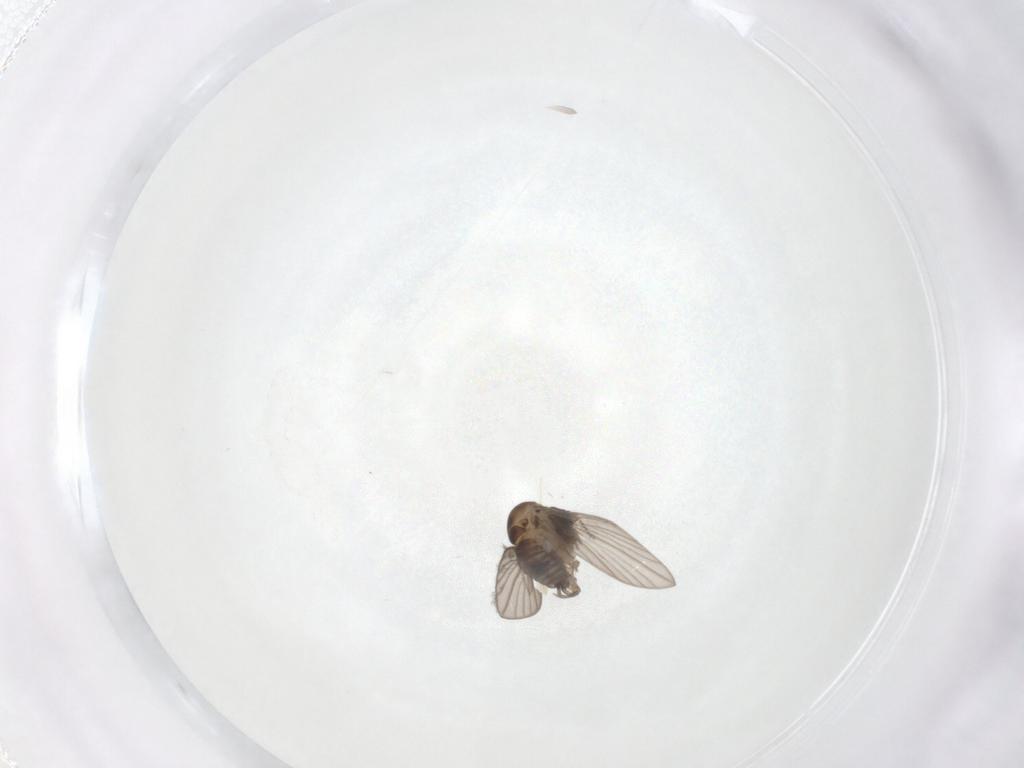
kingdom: Animalia
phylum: Arthropoda
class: Insecta
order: Diptera
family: Psychodidae
